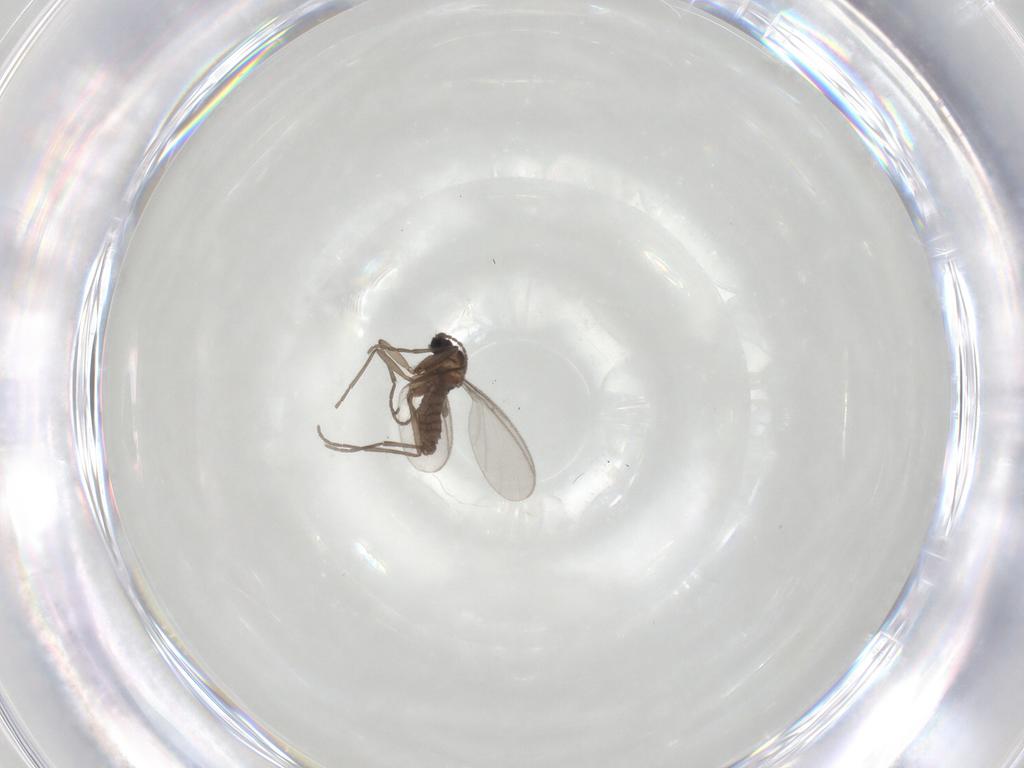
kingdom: Animalia
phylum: Arthropoda
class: Insecta
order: Diptera
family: Sciaridae
